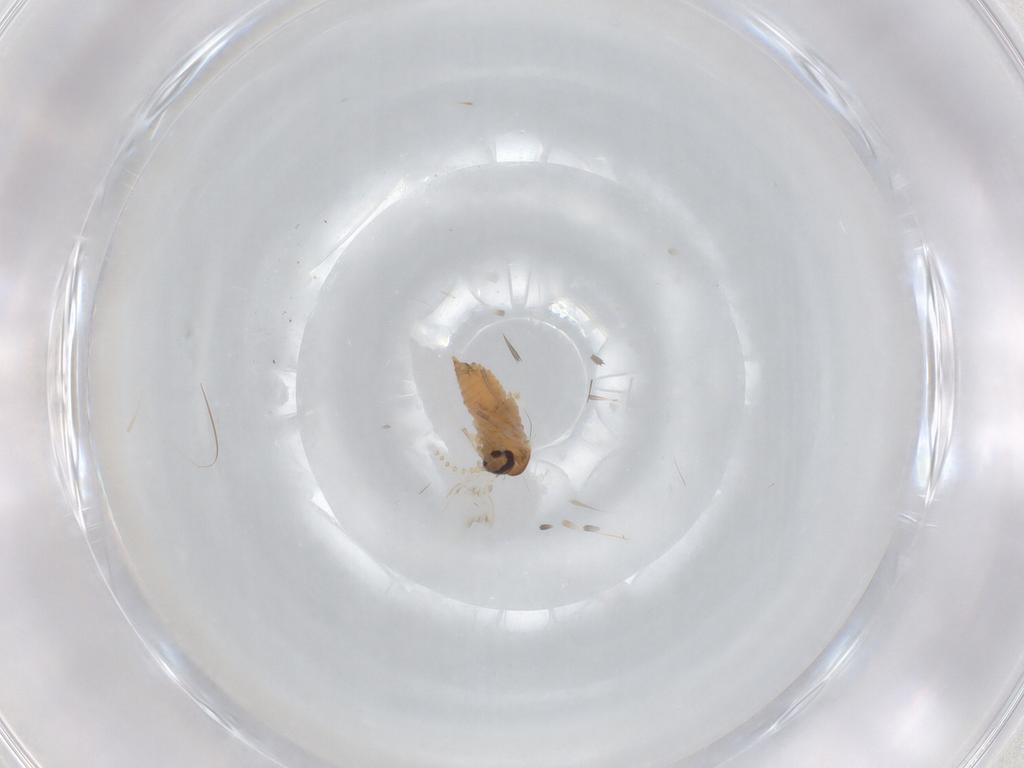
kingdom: Animalia
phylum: Arthropoda
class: Insecta
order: Diptera
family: Psychodidae
